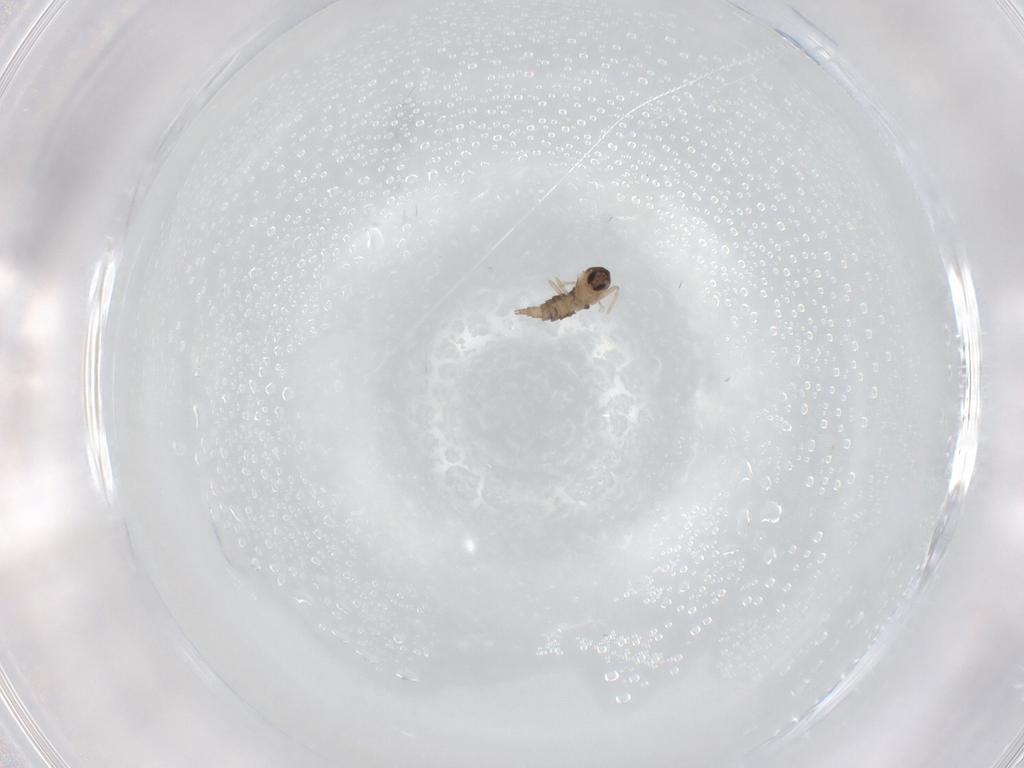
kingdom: Animalia
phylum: Arthropoda
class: Insecta
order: Diptera
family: Cecidomyiidae
